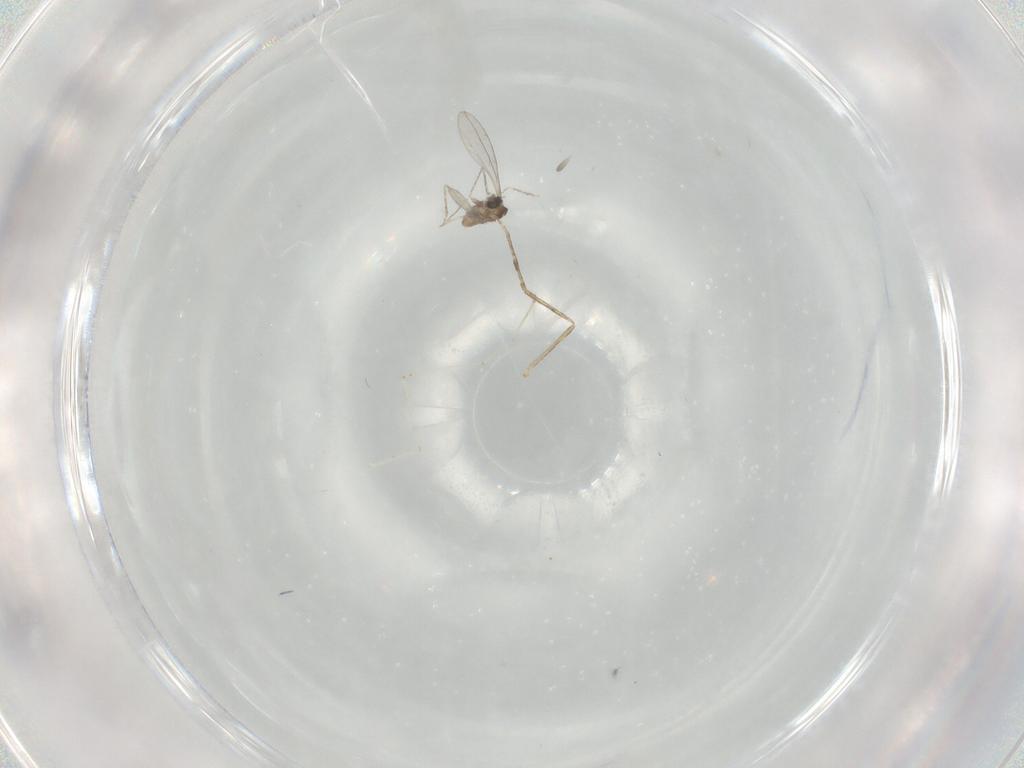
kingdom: Animalia
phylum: Arthropoda
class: Insecta
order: Diptera
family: Cecidomyiidae
